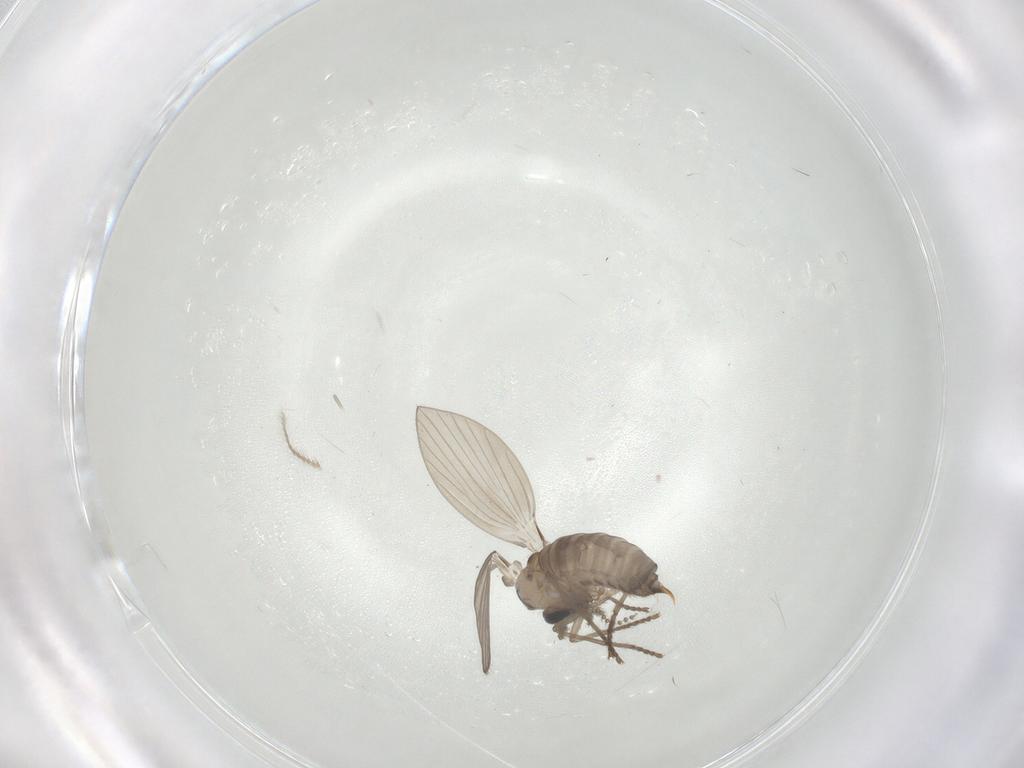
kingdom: Animalia
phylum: Arthropoda
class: Insecta
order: Diptera
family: Psychodidae
